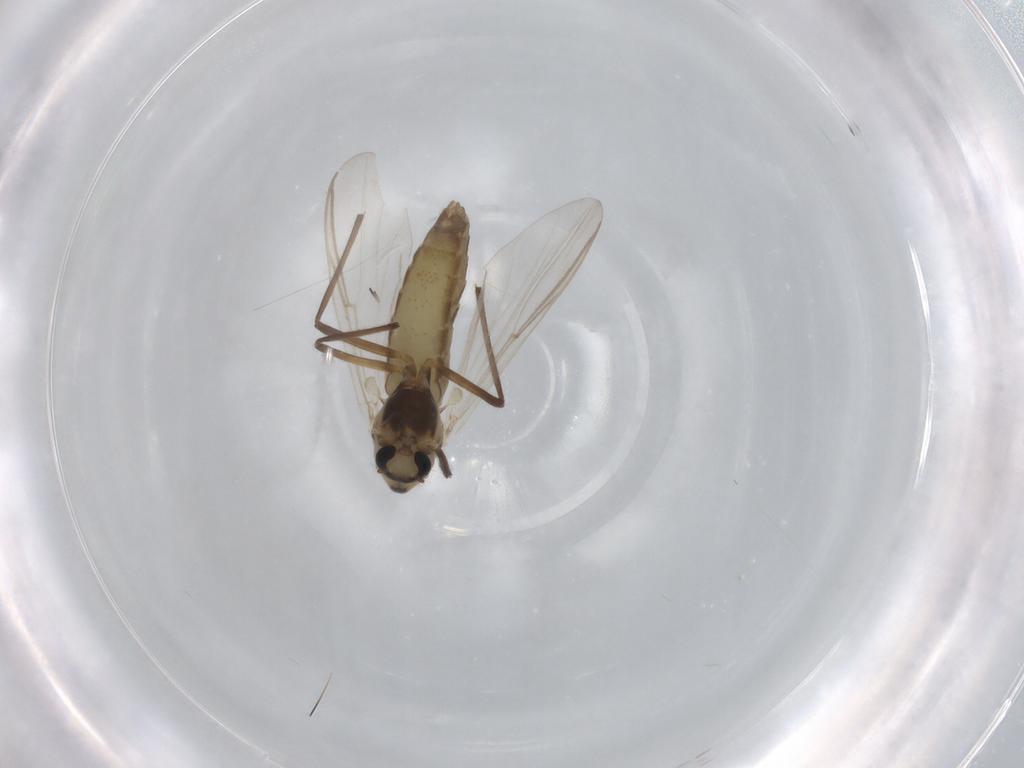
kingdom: Animalia
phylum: Arthropoda
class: Insecta
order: Diptera
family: Chironomidae
